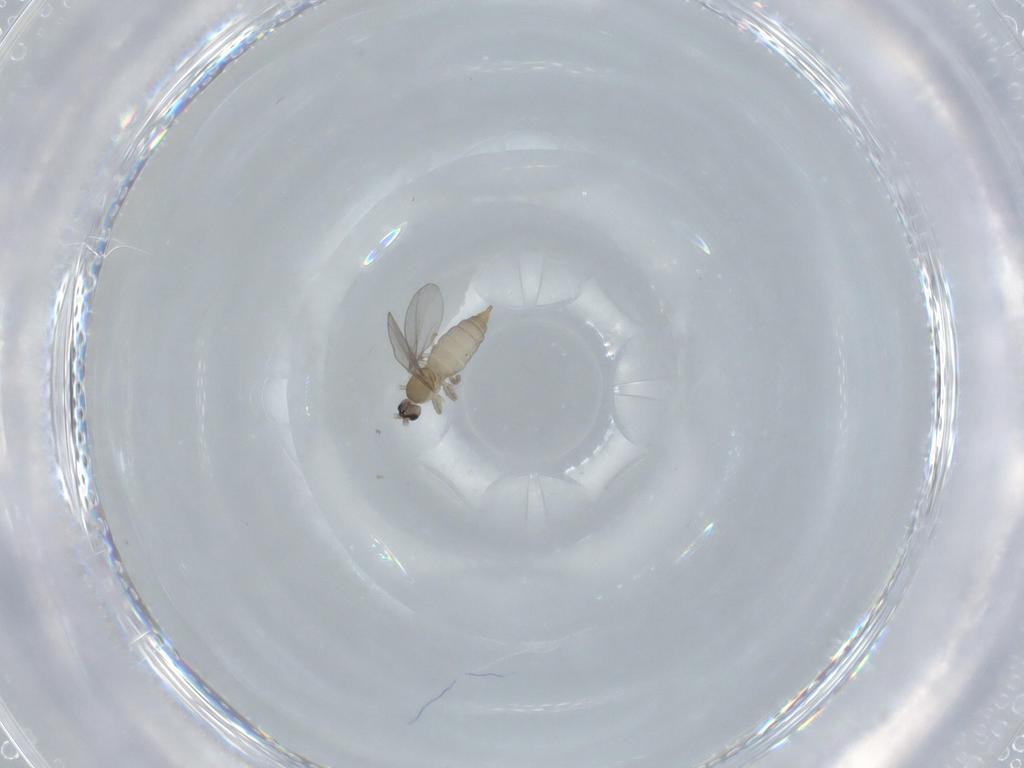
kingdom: Animalia
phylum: Arthropoda
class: Insecta
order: Diptera
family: Cecidomyiidae
